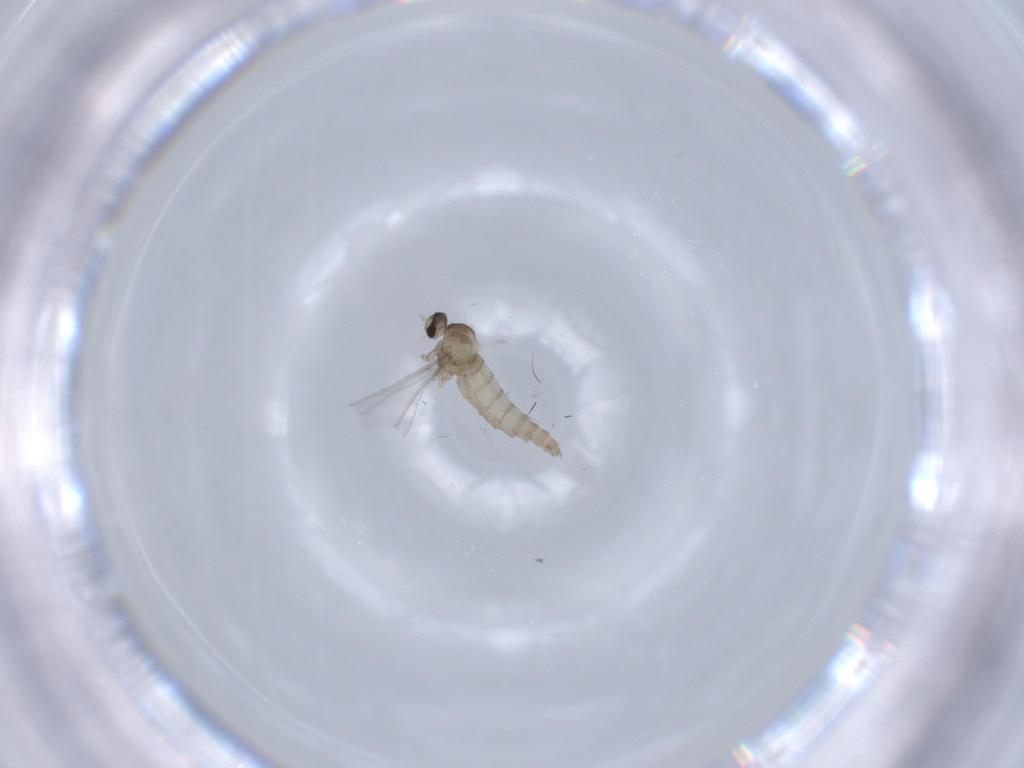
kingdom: Animalia
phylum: Arthropoda
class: Insecta
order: Diptera
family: Cecidomyiidae
